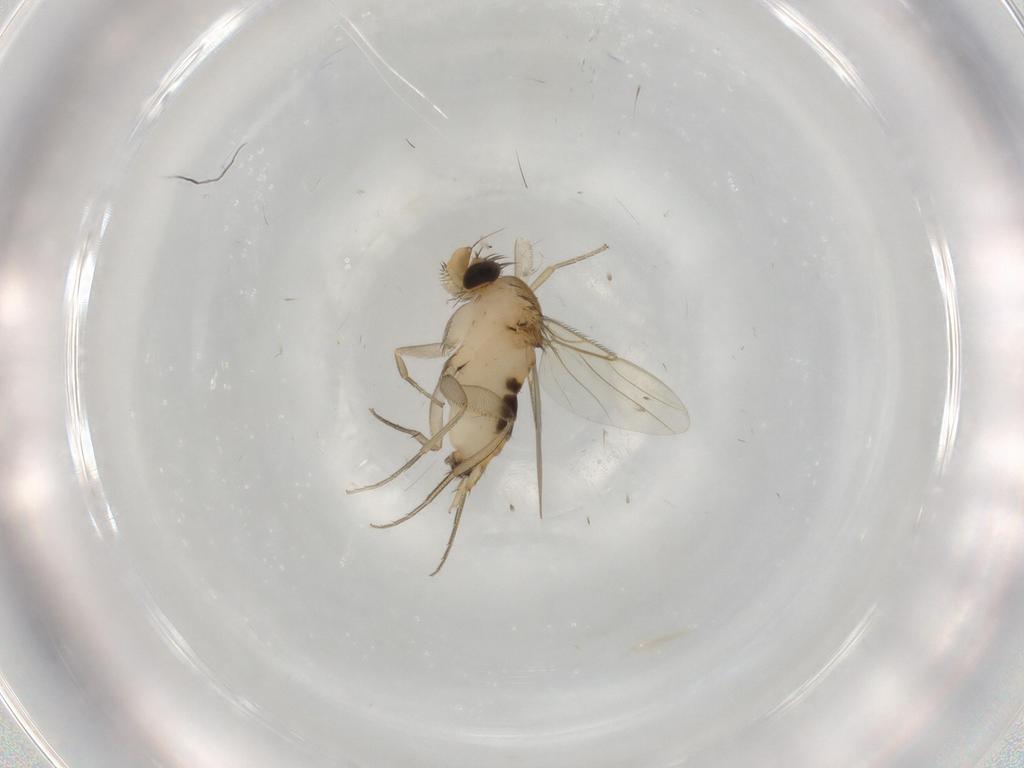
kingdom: Animalia
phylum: Arthropoda
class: Insecta
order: Diptera
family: Phoridae
